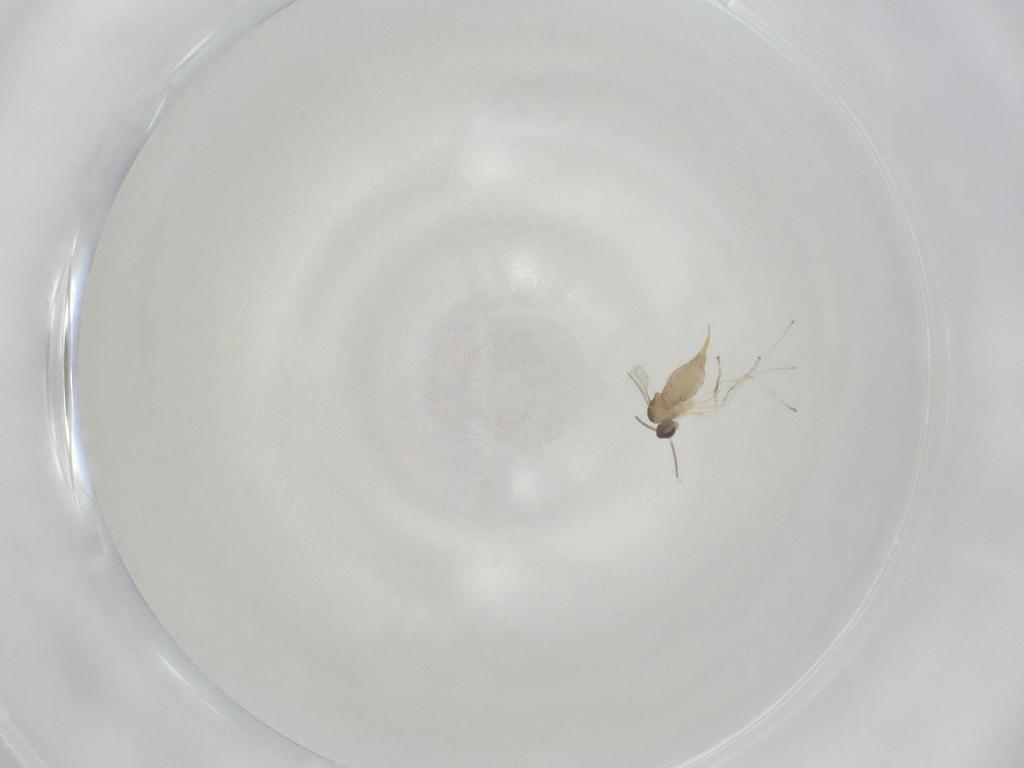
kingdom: Animalia
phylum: Arthropoda
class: Insecta
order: Diptera
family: Cecidomyiidae
